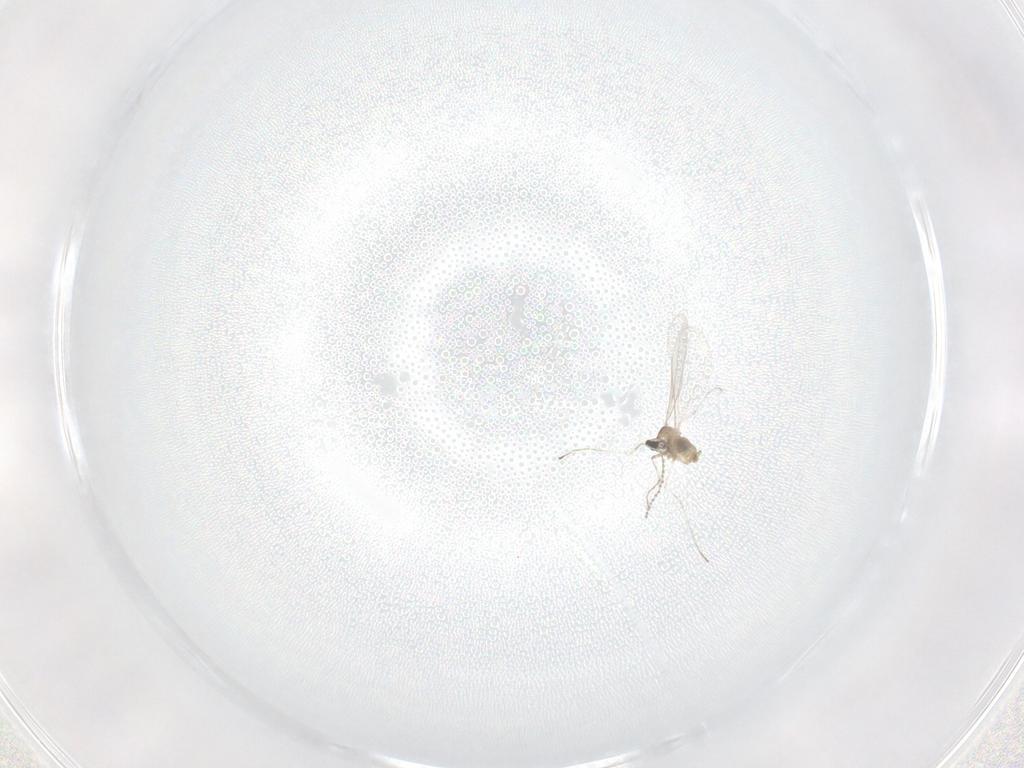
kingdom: Animalia
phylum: Arthropoda
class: Insecta
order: Diptera
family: Cecidomyiidae
